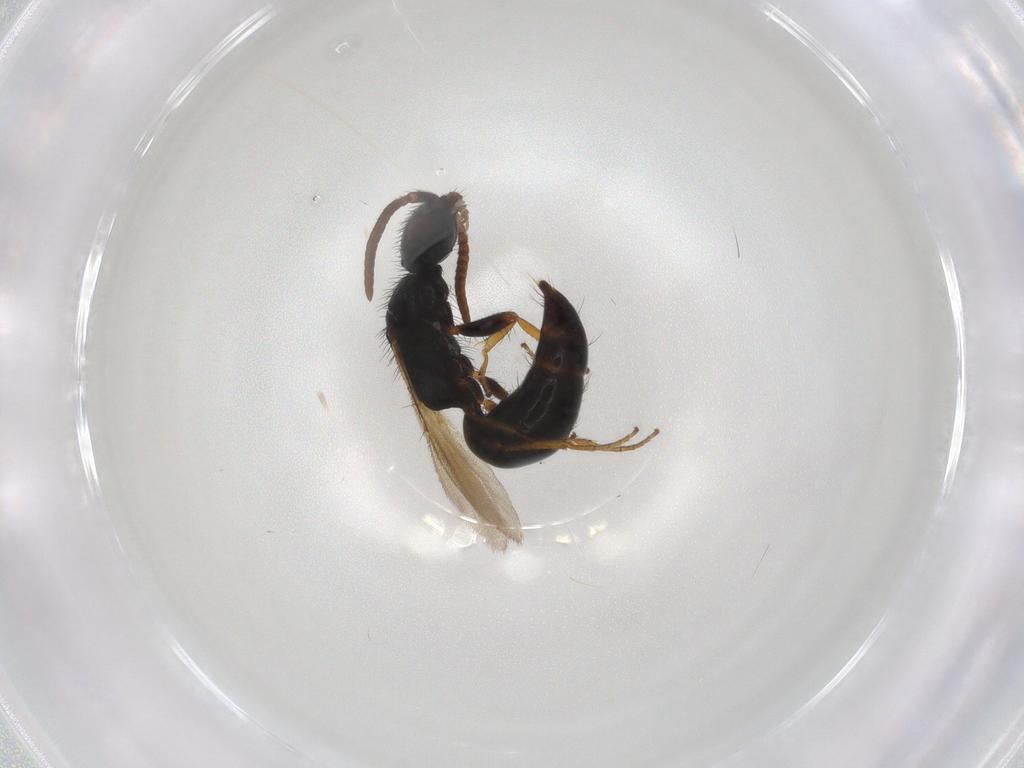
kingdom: Animalia
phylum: Arthropoda
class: Insecta
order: Hymenoptera
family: Bethylidae
